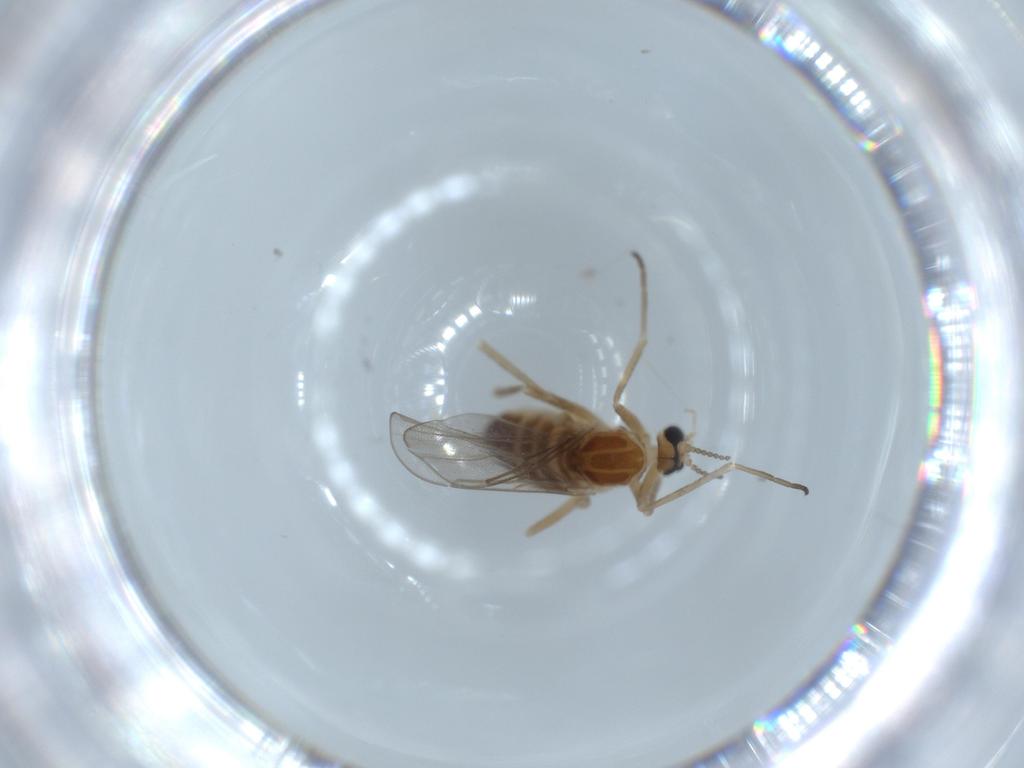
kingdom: Animalia
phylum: Arthropoda
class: Insecta
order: Diptera
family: Cecidomyiidae
